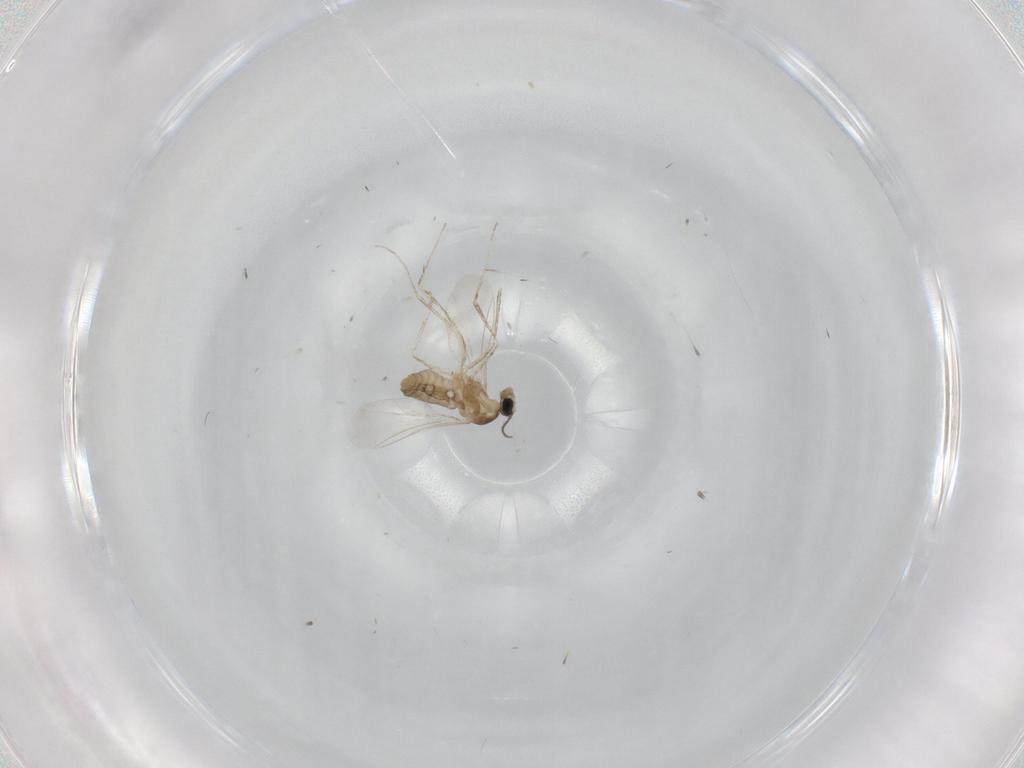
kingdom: Animalia
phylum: Arthropoda
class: Insecta
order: Diptera
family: Cecidomyiidae
